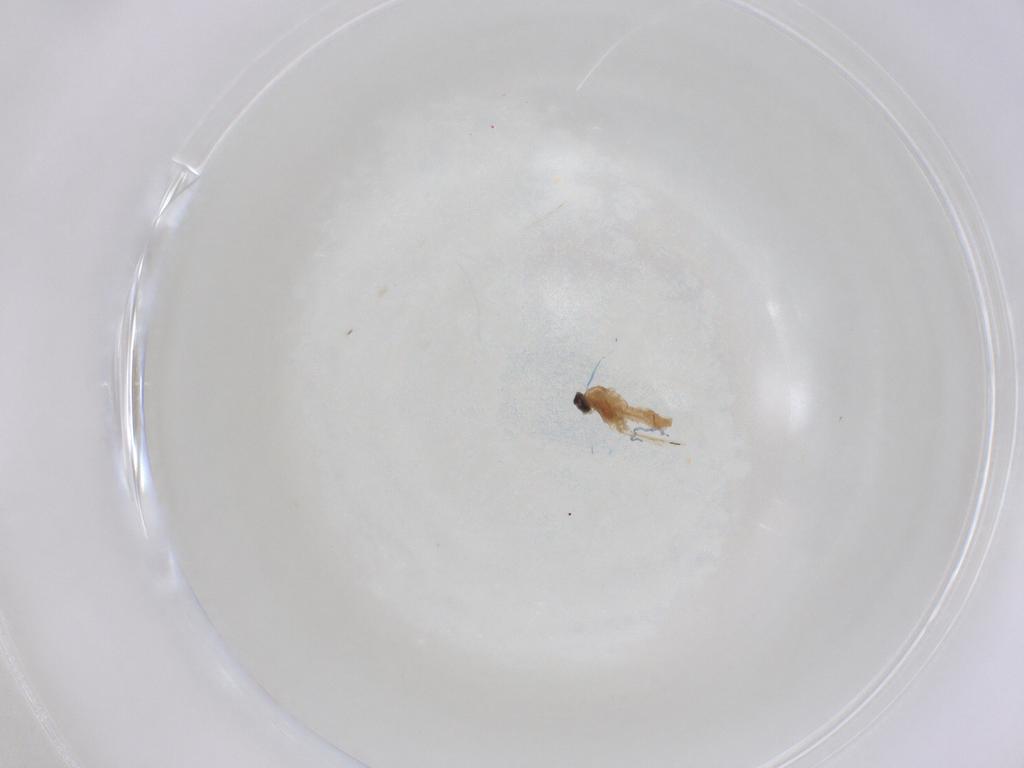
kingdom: Animalia
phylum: Arthropoda
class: Insecta
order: Diptera
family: Cecidomyiidae
